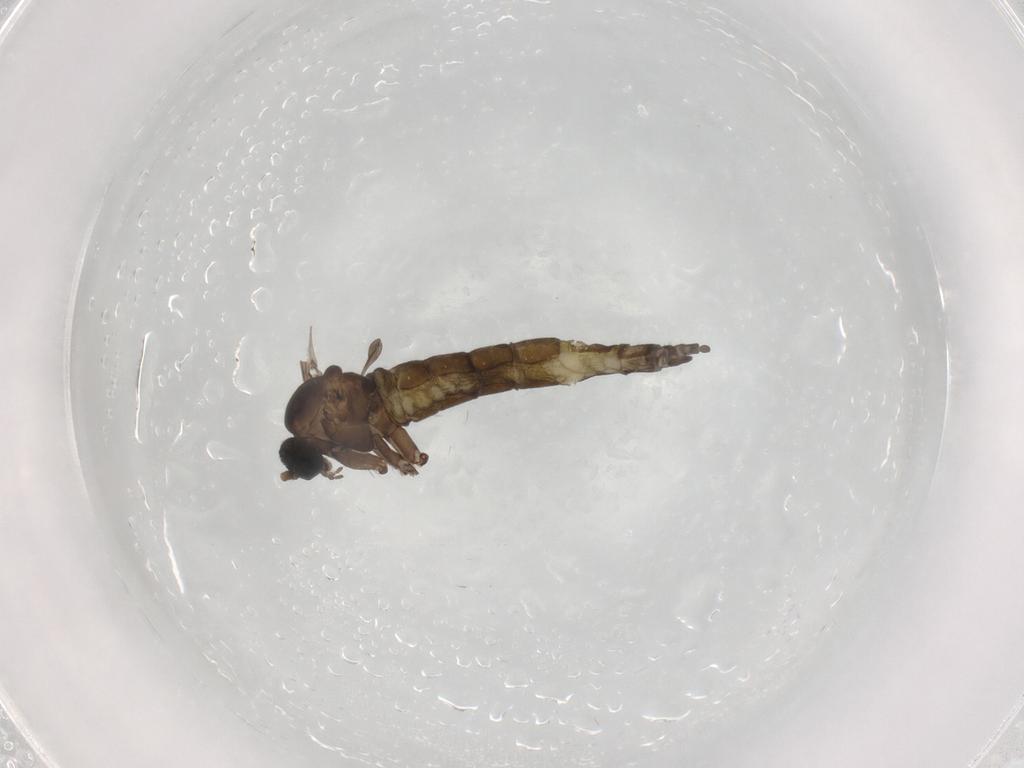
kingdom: Animalia
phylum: Arthropoda
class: Insecta
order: Diptera
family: Sciaridae
